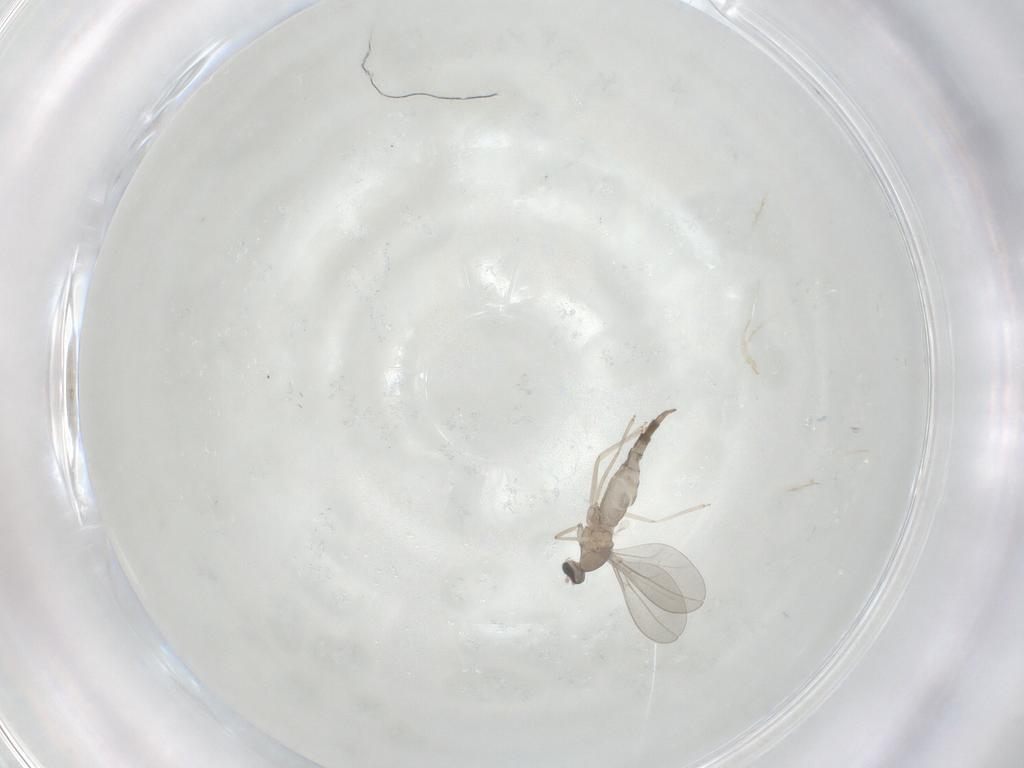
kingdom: Animalia
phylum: Arthropoda
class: Insecta
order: Diptera
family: Cecidomyiidae
